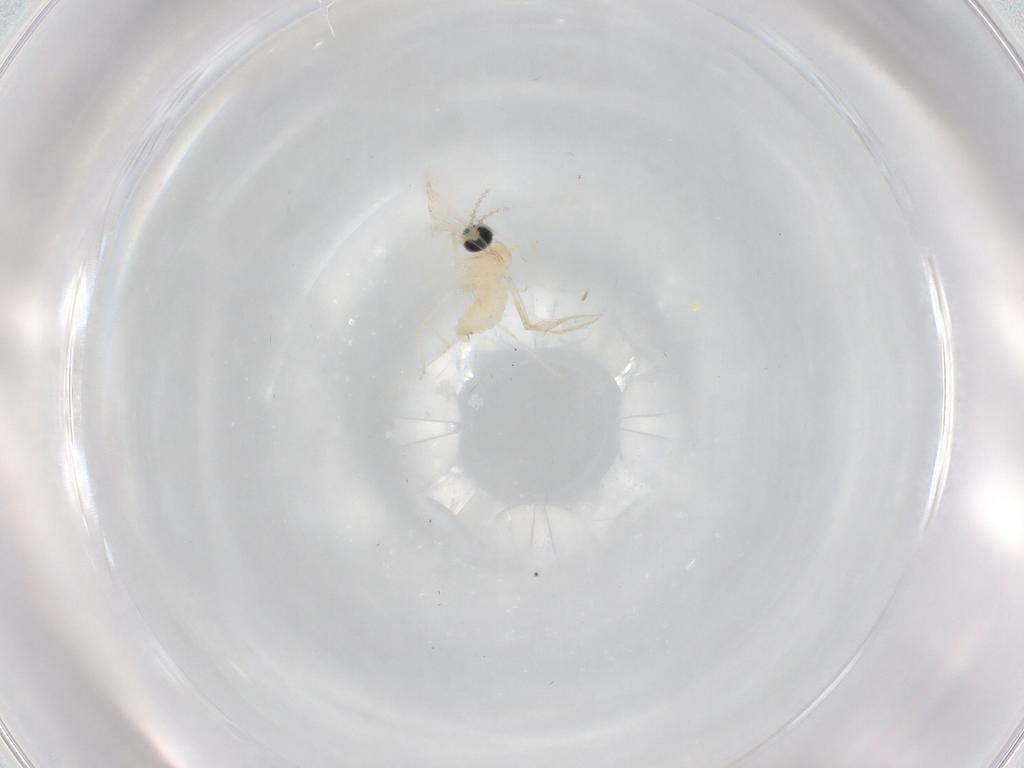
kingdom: Animalia
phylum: Arthropoda
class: Insecta
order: Diptera
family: Cecidomyiidae
